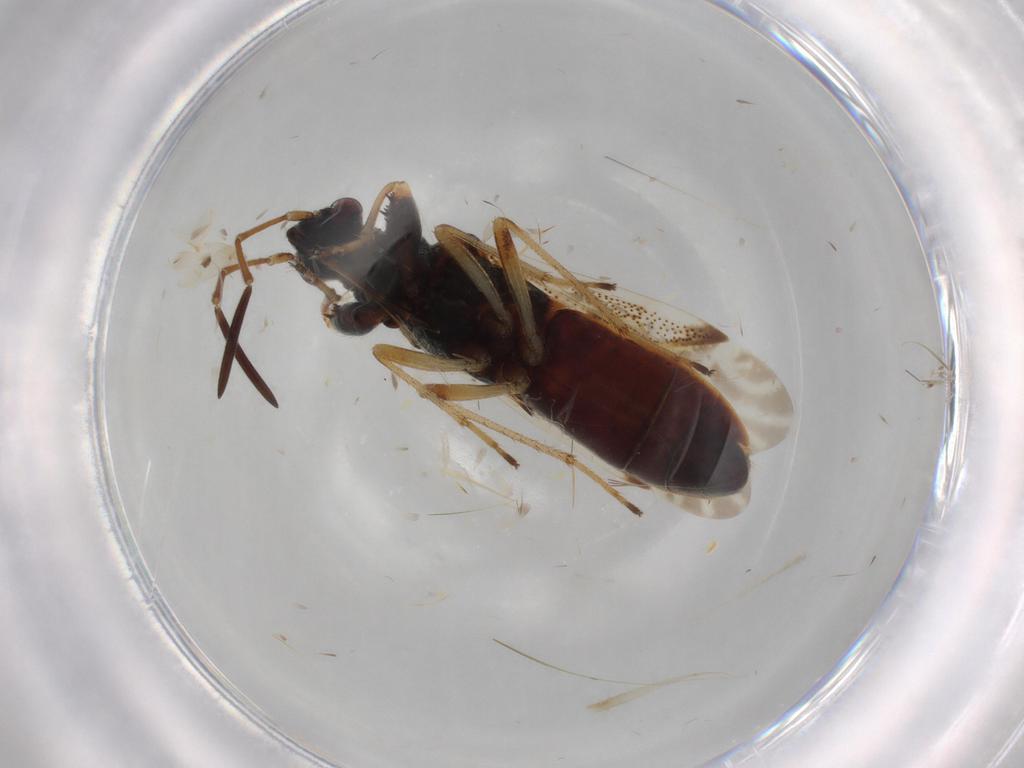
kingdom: Animalia
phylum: Arthropoda
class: Insecta
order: Hemiptera
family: Rhyparochromidae
